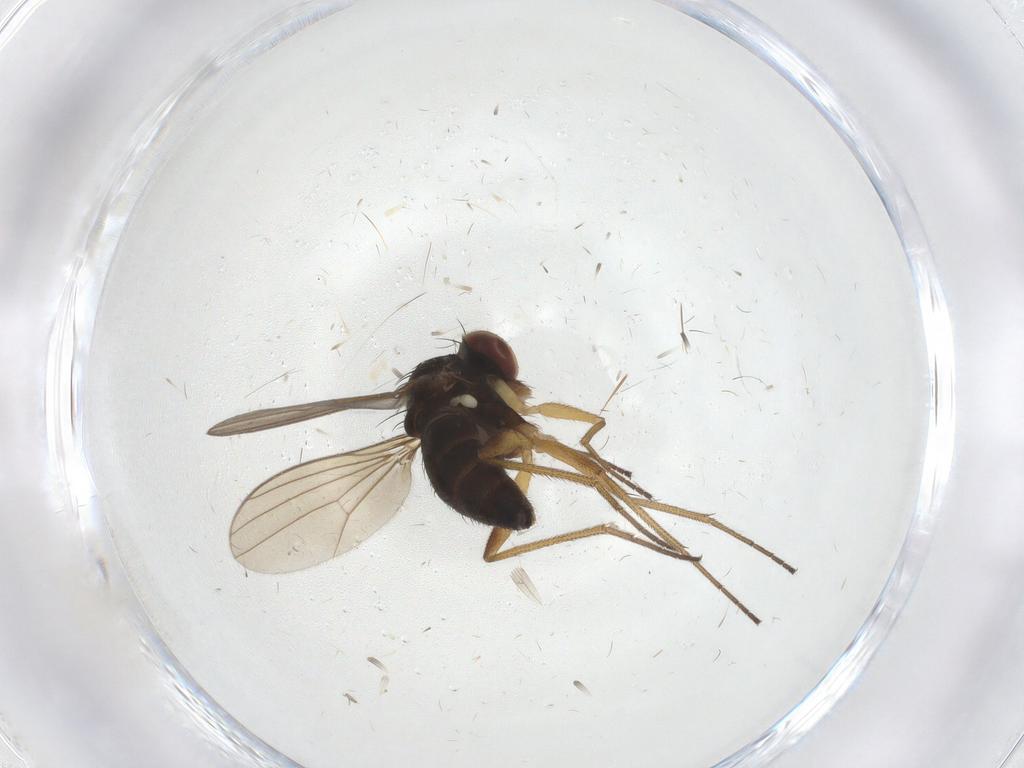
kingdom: Animalia
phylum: Arthropoda
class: Insecta
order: Diptera
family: Dolichopodidae
